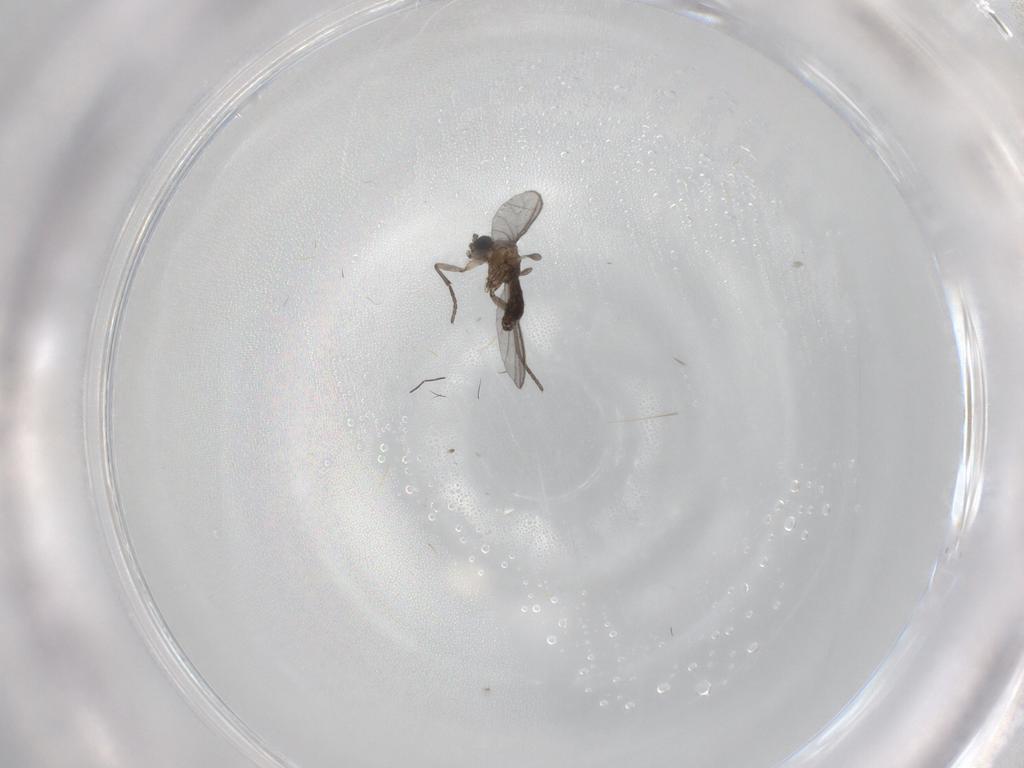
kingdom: Animalia
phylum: Arthropoda
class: Insecta
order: Diptera
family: Sciaridae
